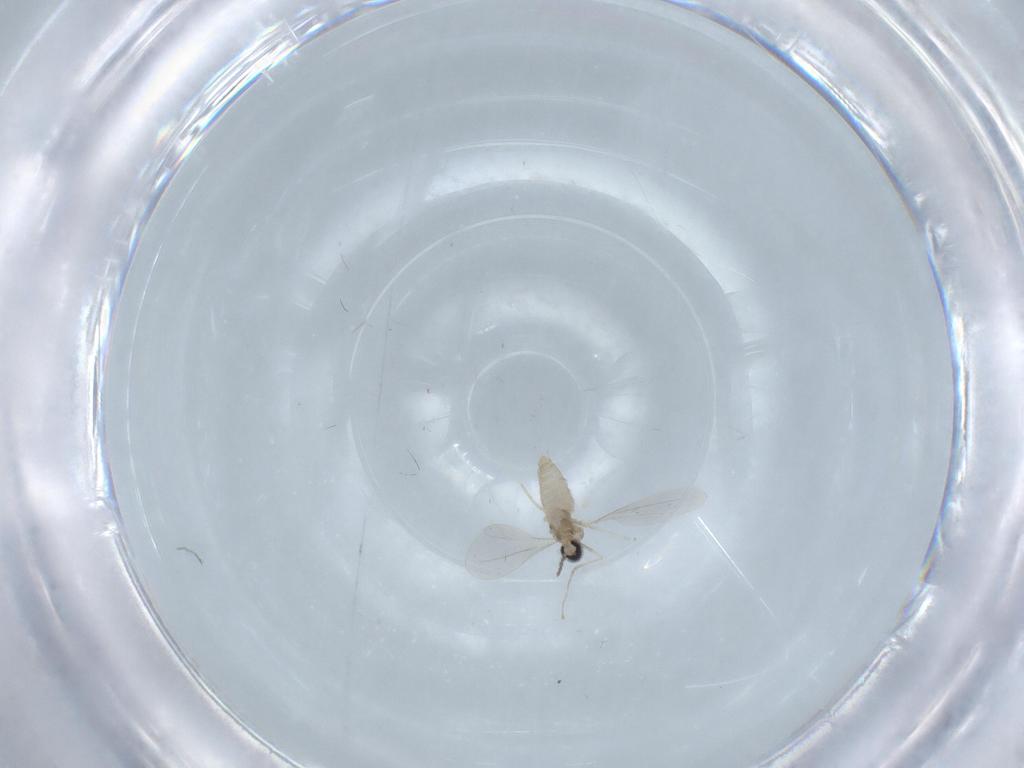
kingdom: Animalia
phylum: Arthropoda
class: Insecta
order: Diptera
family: Cecidomyiidae
